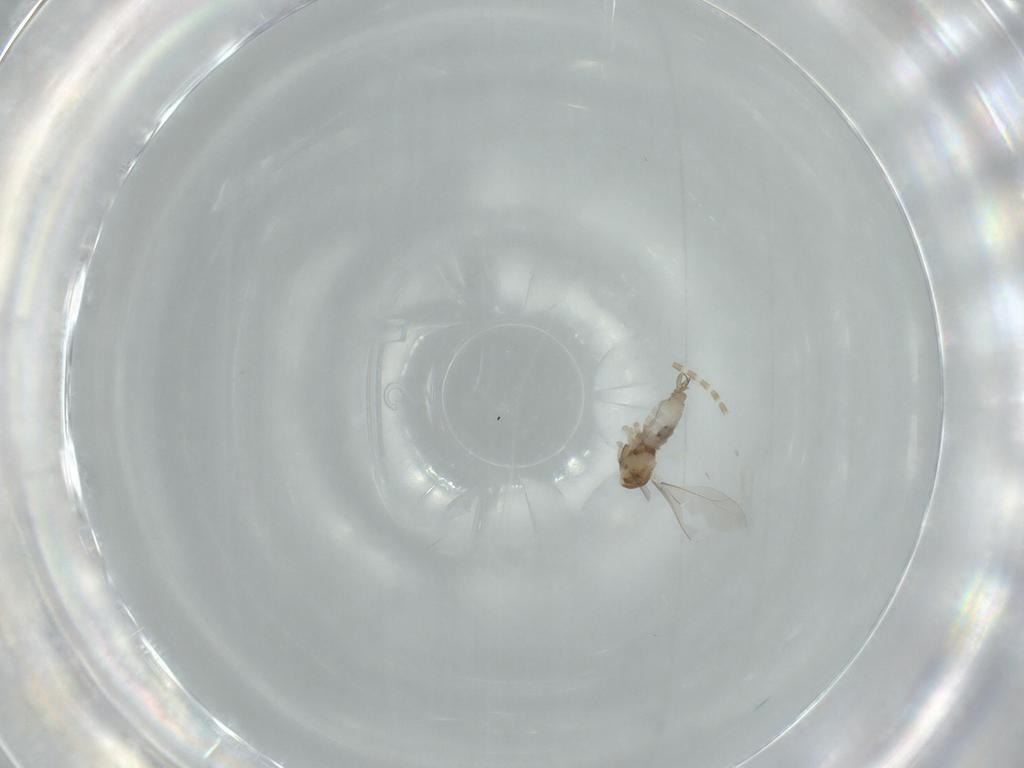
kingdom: Animalia
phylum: Arthropoda
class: Insecta
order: Diptera
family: Cecidomyiidae
